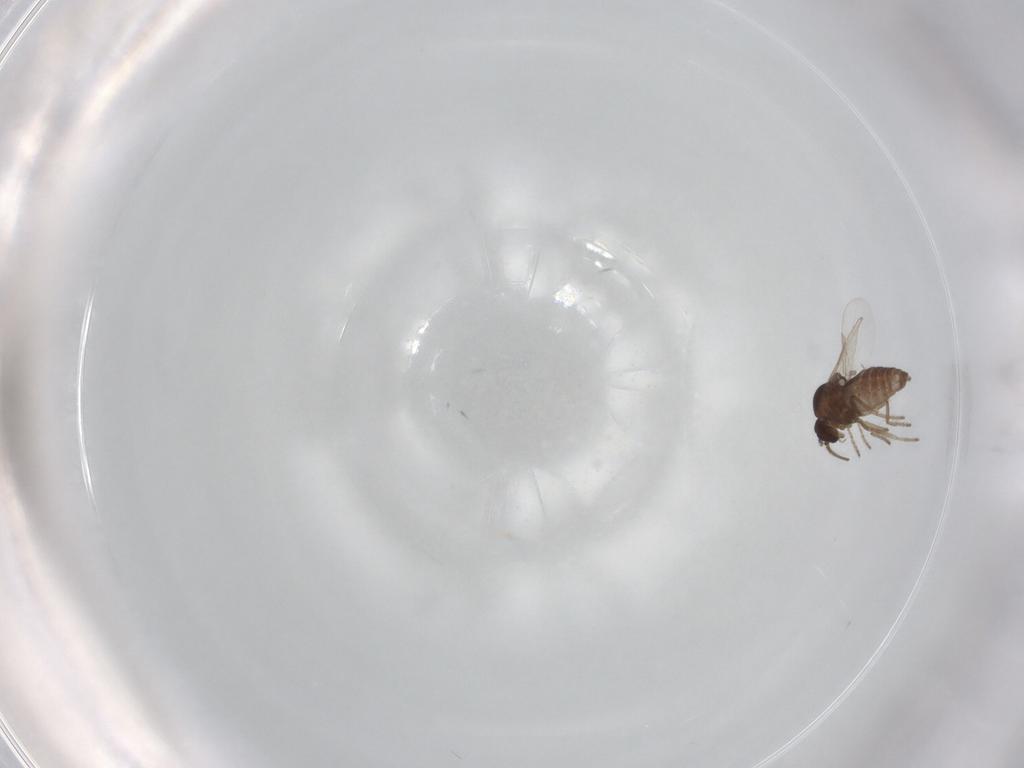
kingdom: Animalia
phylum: Arthropoda
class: Insecta
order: Diptera
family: Ceratopogonidae
